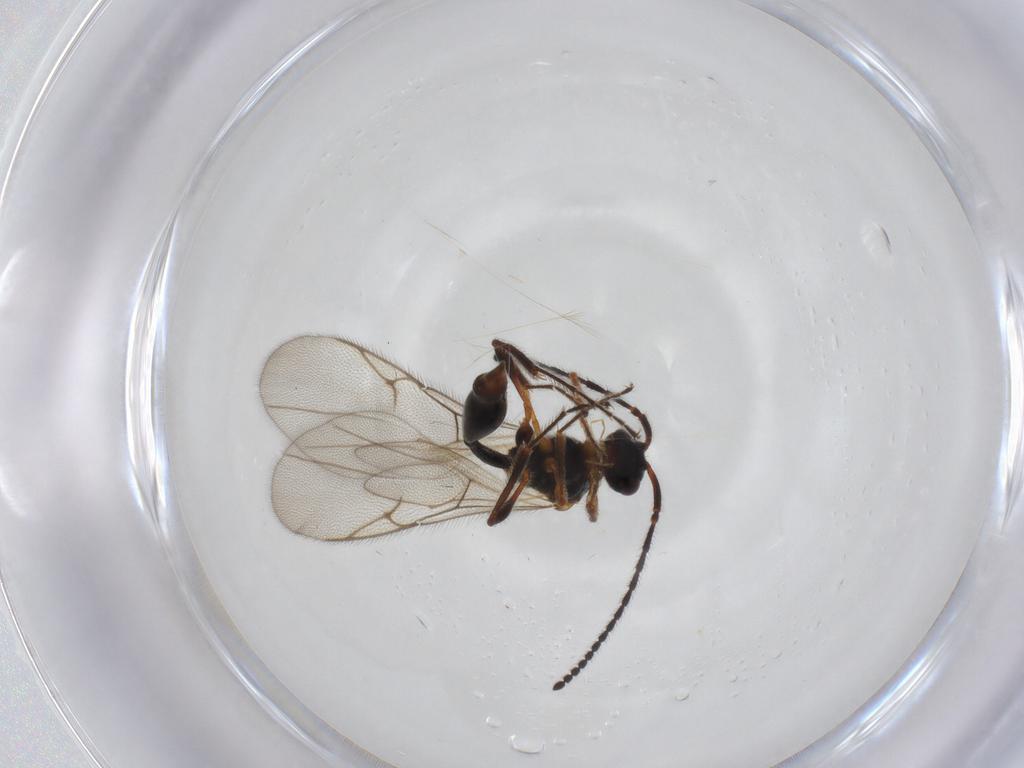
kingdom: Animalia
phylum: Arthropoda
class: Insecta
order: Hymenoptera
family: Diapriidae
